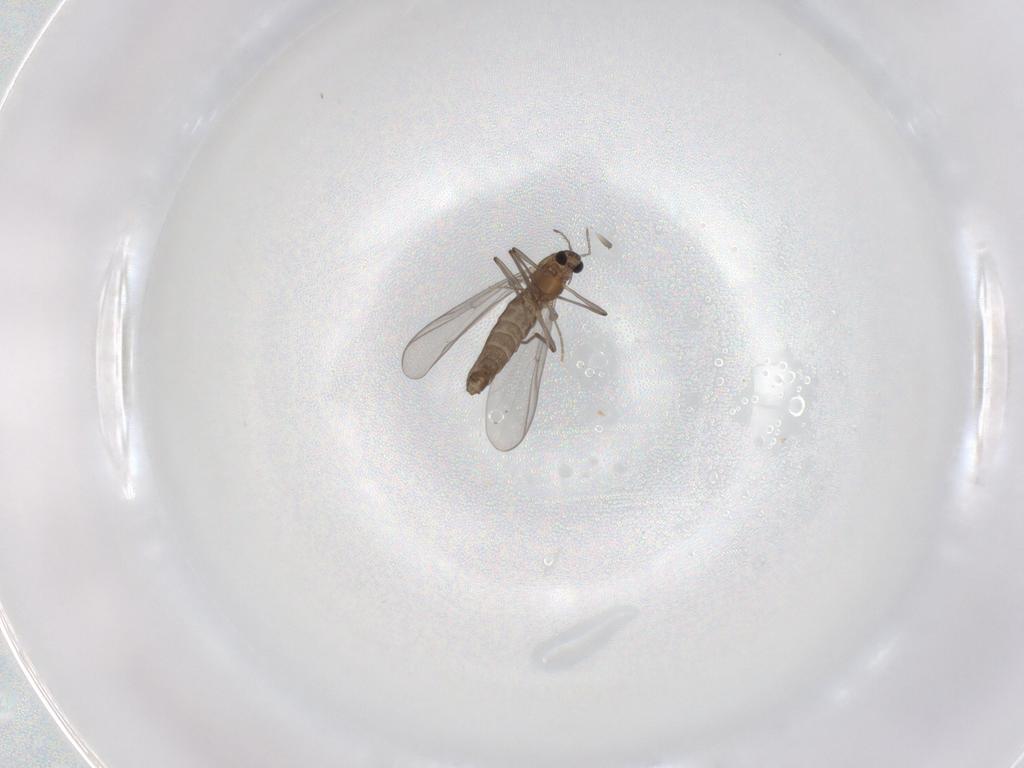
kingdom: Animalia
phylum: Arthropoda
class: Insecta
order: Diptera
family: Chironomidae
